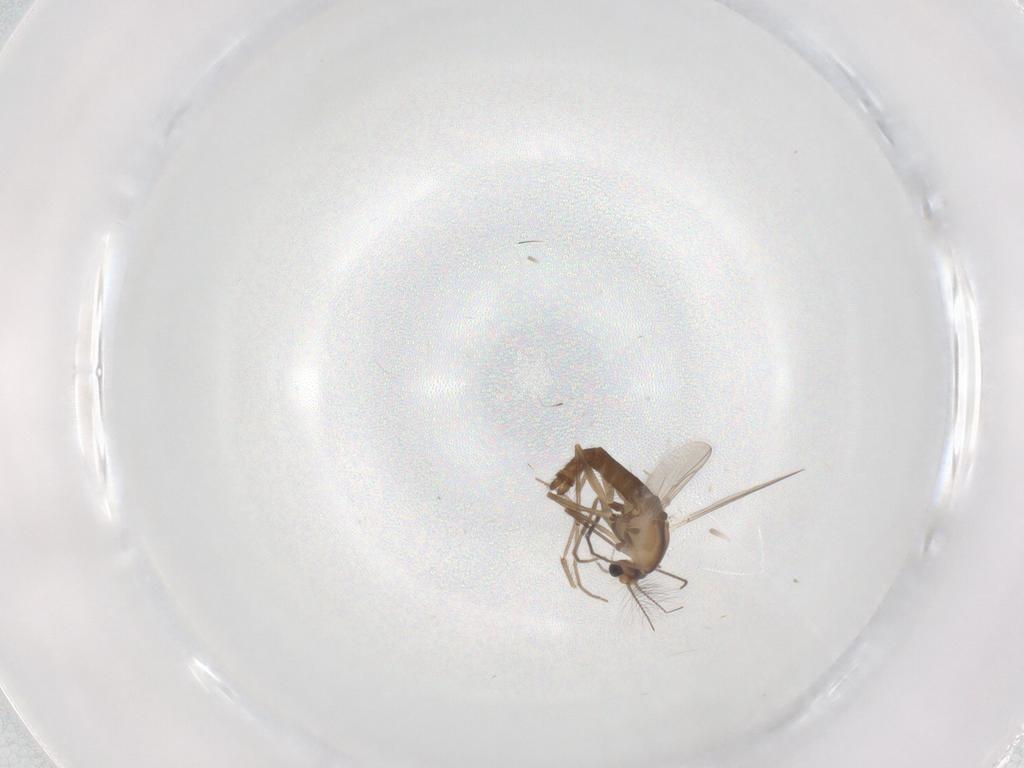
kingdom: Animalia
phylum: Arthropoda
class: Insecta
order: Diptera
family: Chironomidae
